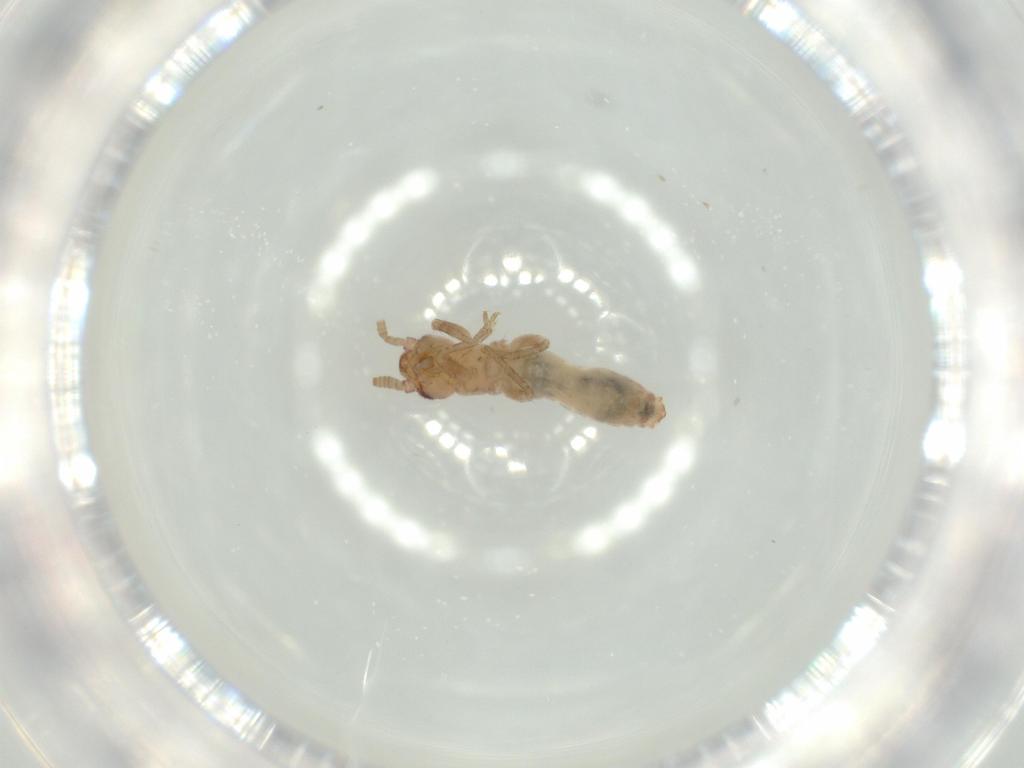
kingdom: Animalia
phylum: Arthropoda
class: Insecta
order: Orthoptera
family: Mogoplistidae
